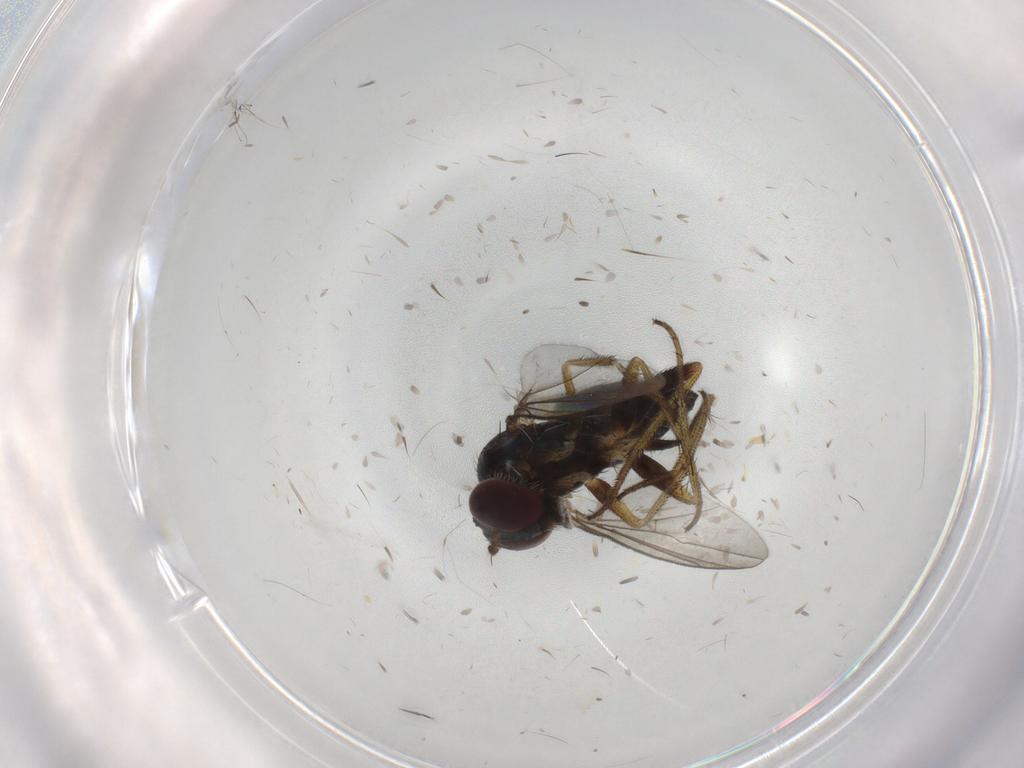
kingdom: Animalia
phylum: Arthropoda
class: Insecta
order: Diptera
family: Dolichopodidae
